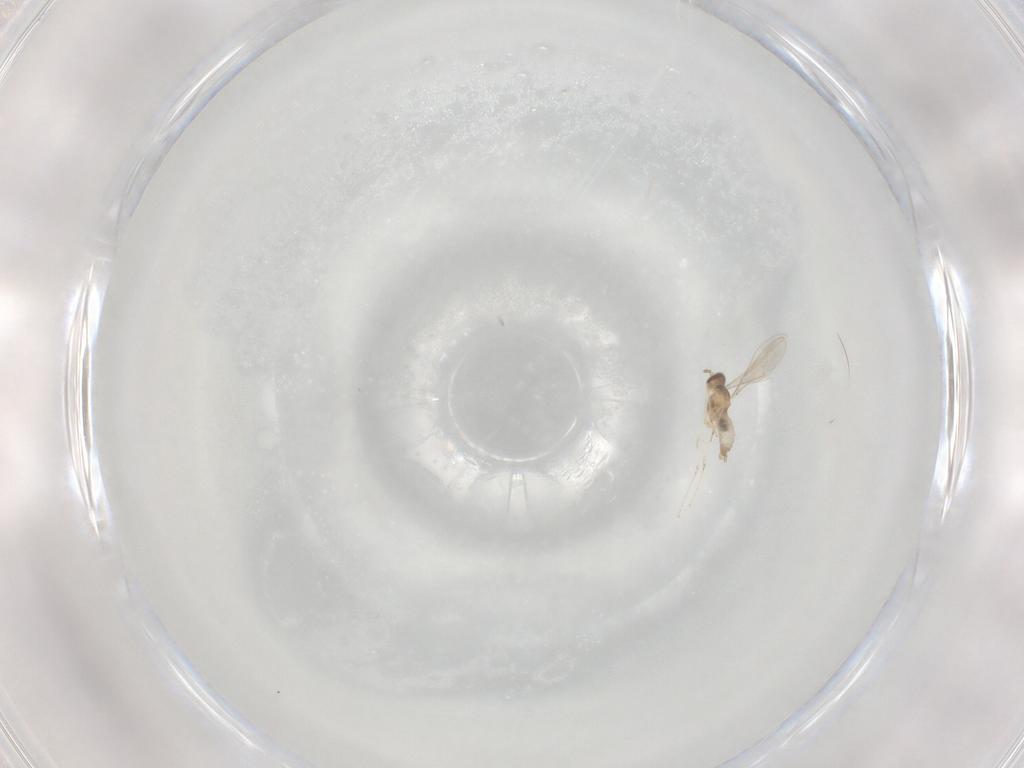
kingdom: Animalia
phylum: Arthropoda
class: Insecta
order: Diptera
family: Cecidomyiidae
